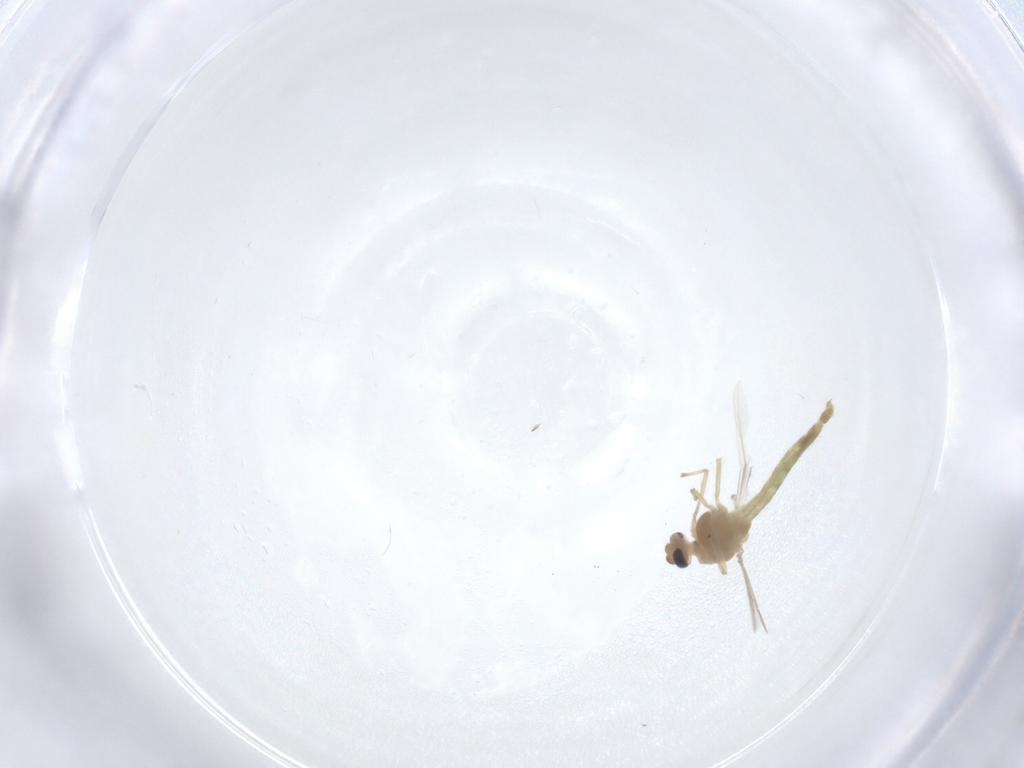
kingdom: Animalia
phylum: Arthropoda
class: Insecta
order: Diptera
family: Chironomidae
